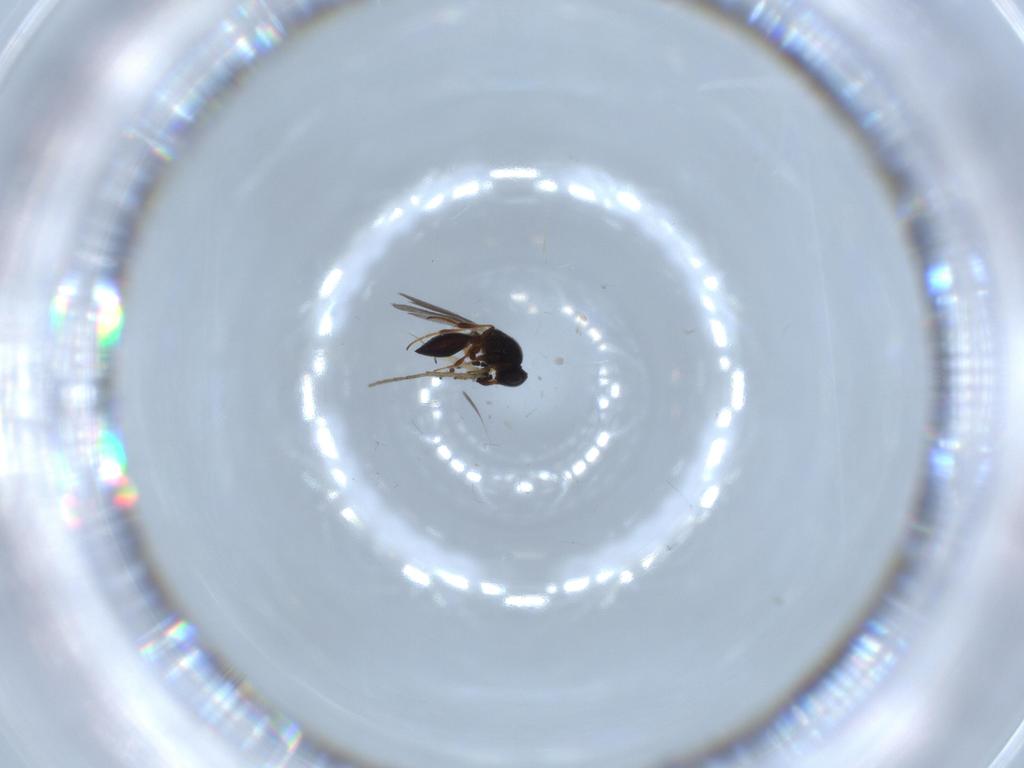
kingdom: Animalia
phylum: Arthropoda
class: Insecta
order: Hymenoptera
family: Platygastridae
